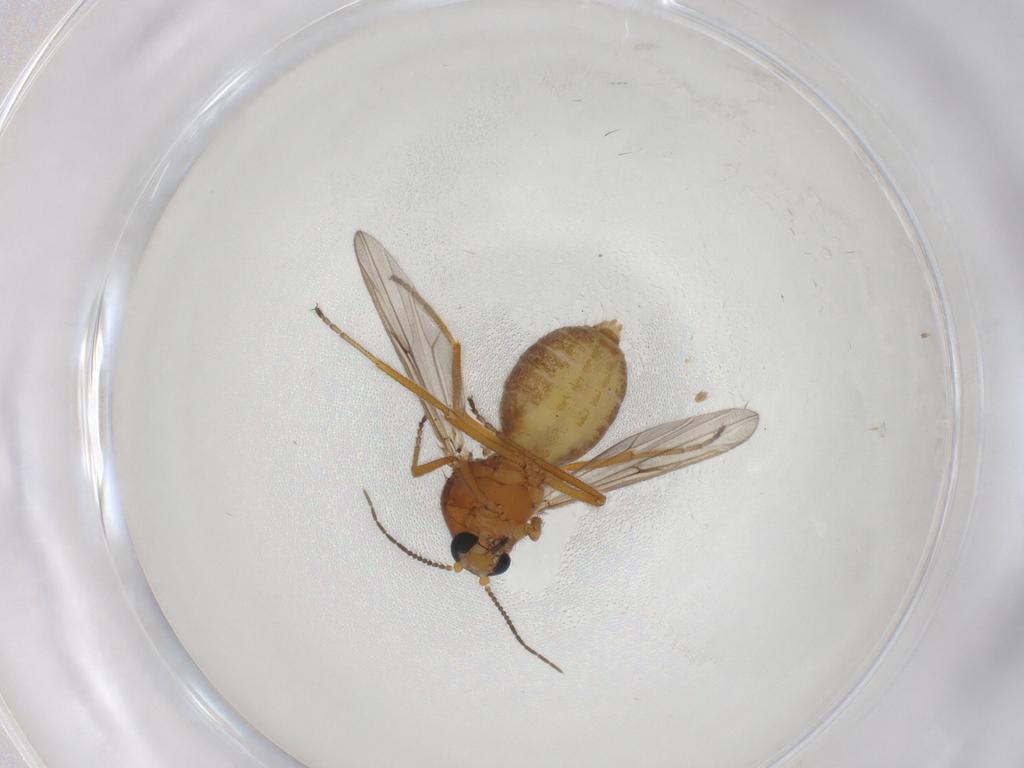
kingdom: Animalia
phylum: Arthropoda
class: Insecta
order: Diptera
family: Ceratopogonidae
